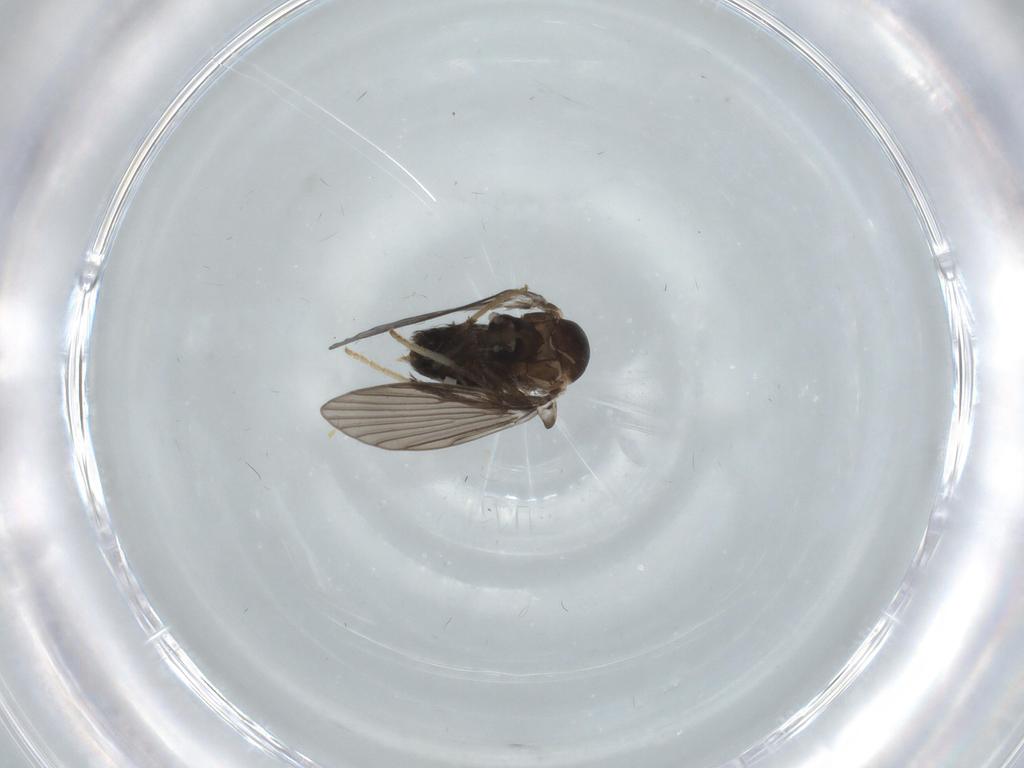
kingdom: Animalia
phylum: Arthropoda
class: Insecta
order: Diptera
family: Psychodidae
